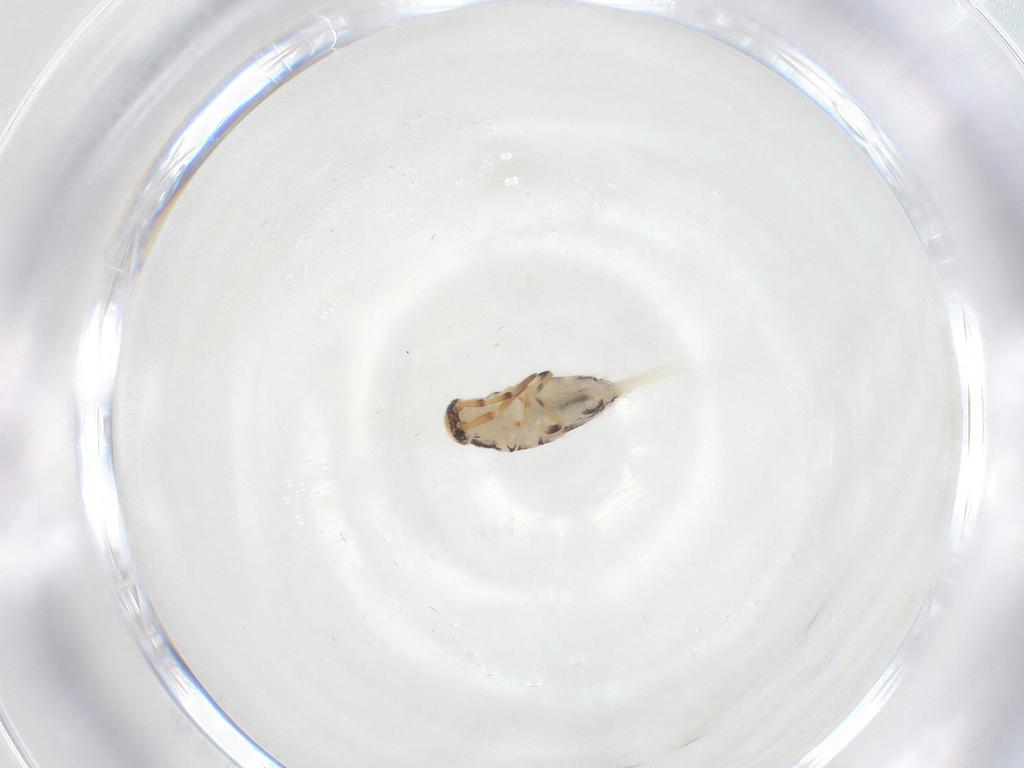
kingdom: Animalia
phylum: Arthropoda
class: Collembola
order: Entomobryomorpha
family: Isotomidae
